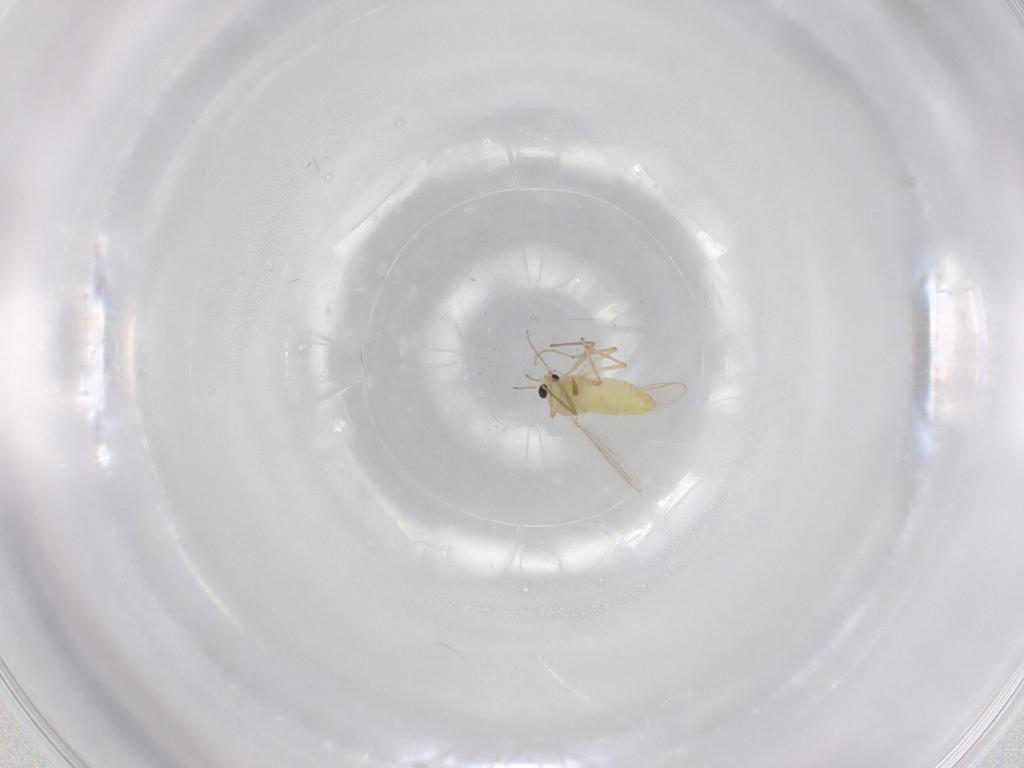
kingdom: Animalia
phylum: Arthropoda
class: Insecta
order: Diptera
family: Chironomidae
